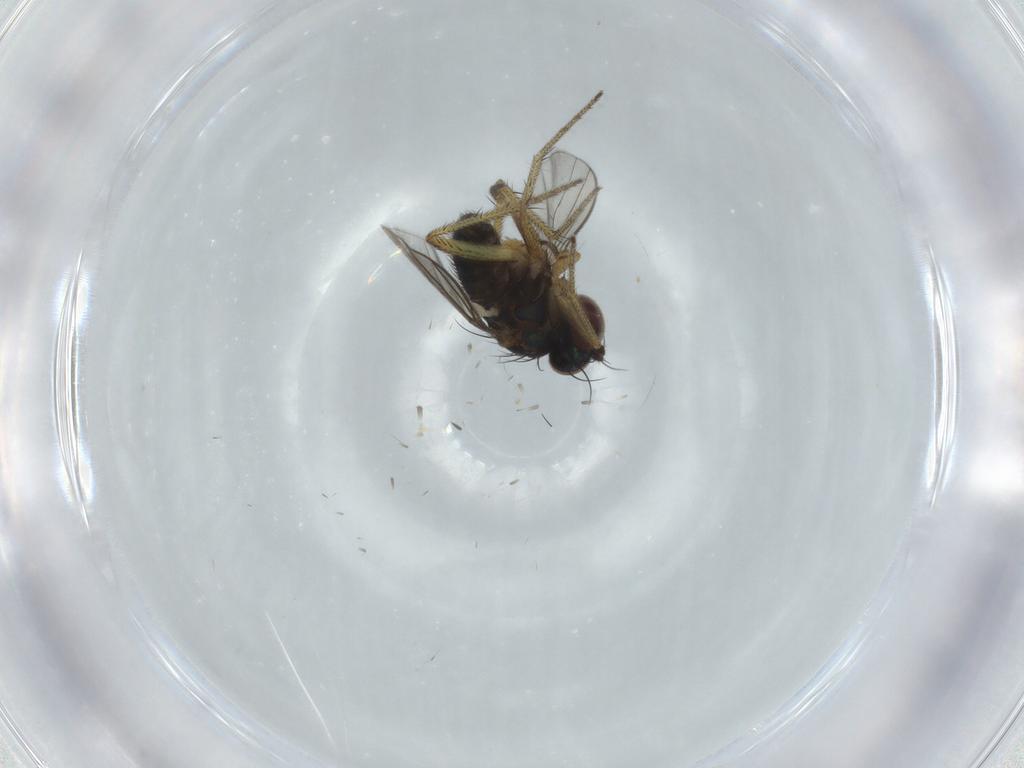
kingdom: Animalia
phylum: Arthropoda
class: Insecta
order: Diptera
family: Dolichopodidae
